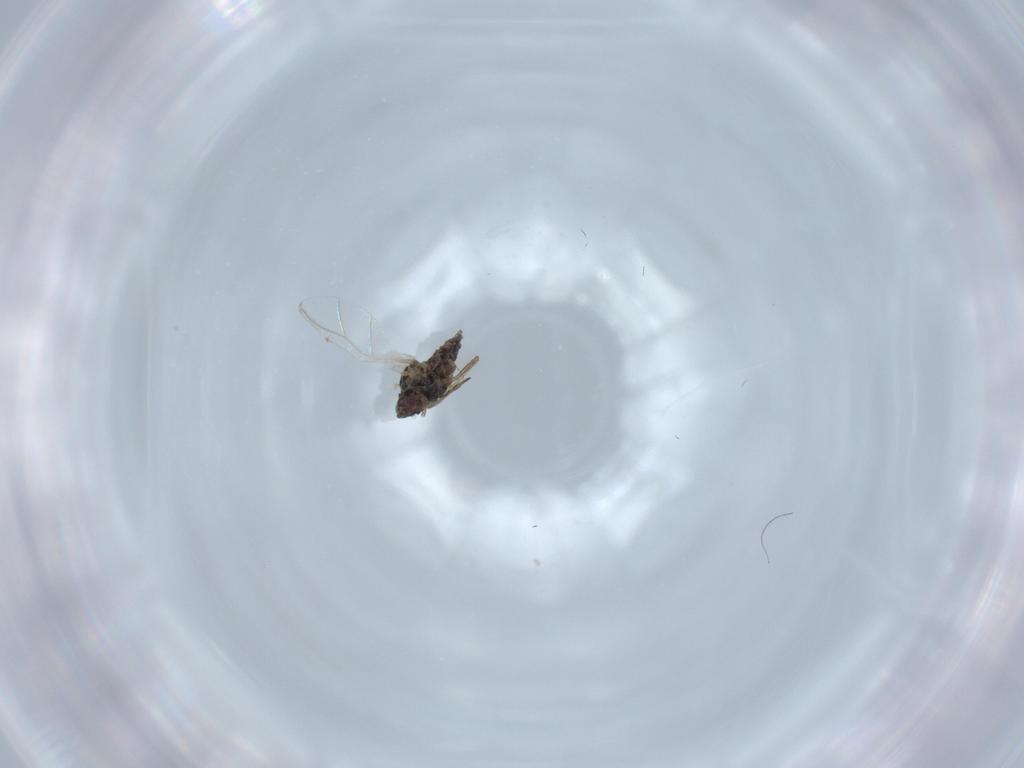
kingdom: Animalia
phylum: Arthropoda
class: Insecta
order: Hemiptera
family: Aphididae
